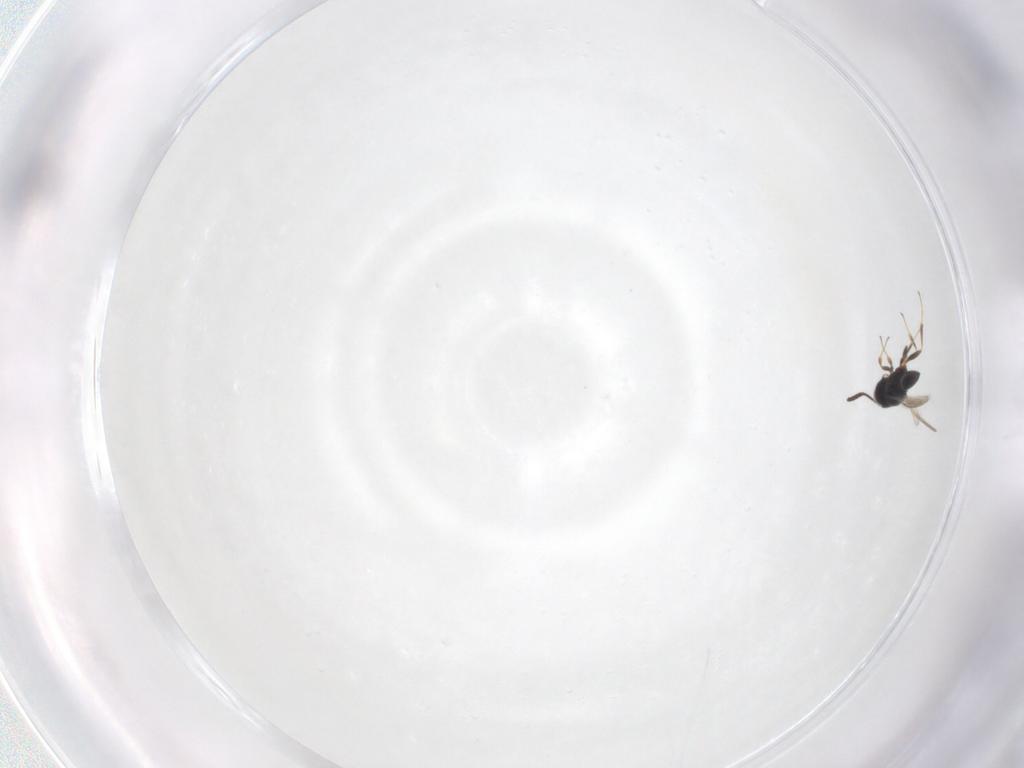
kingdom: Animalia
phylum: Arthropoda
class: Insecta
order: Hymenoptera
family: Scelionidae
